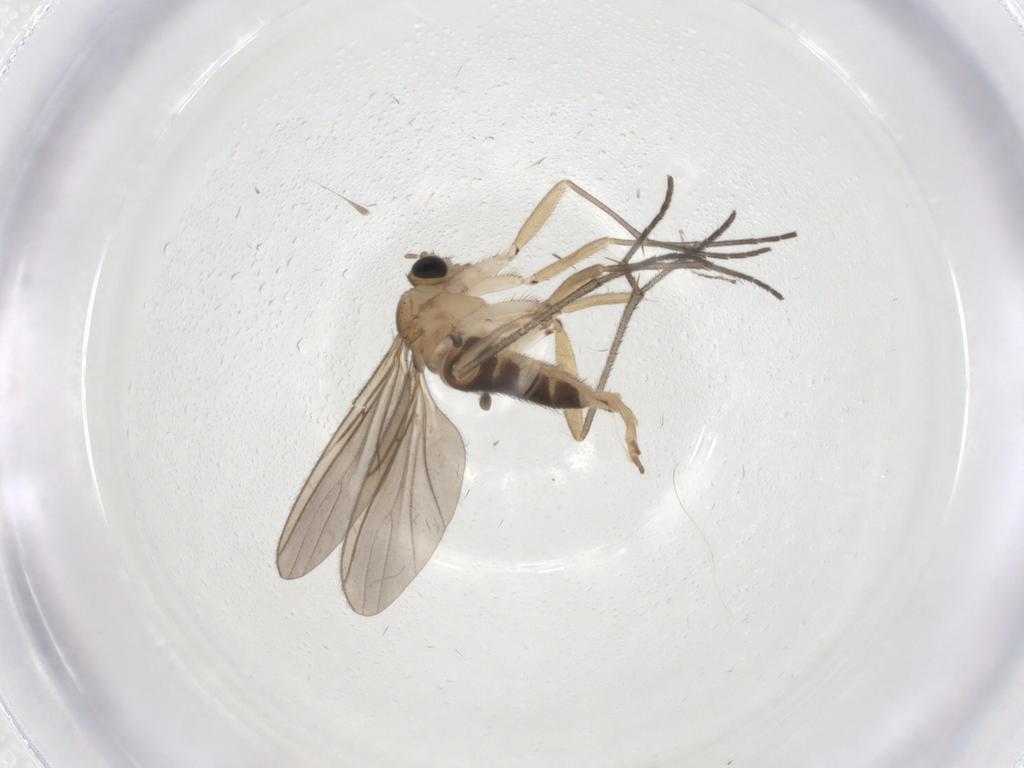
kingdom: Animalia
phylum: Arthropoda
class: Insecta
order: Diptera
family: Sciaridae
